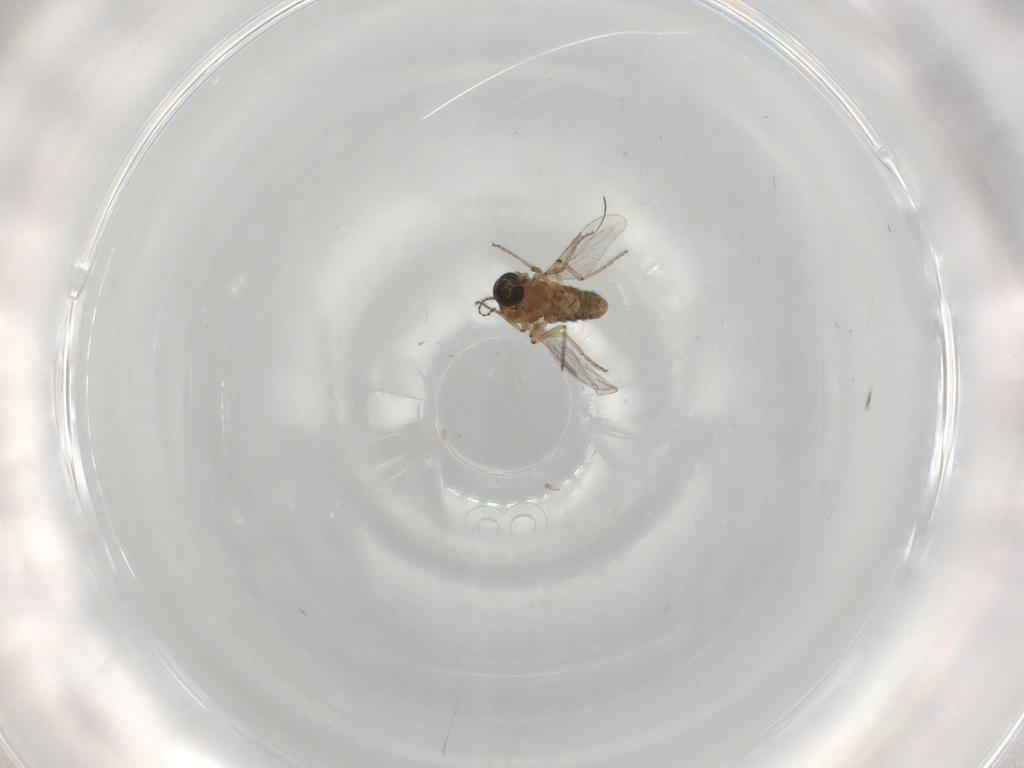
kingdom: Animalia
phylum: Arthropoda
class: Insecta
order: Diptera
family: Ceratopogonidae
